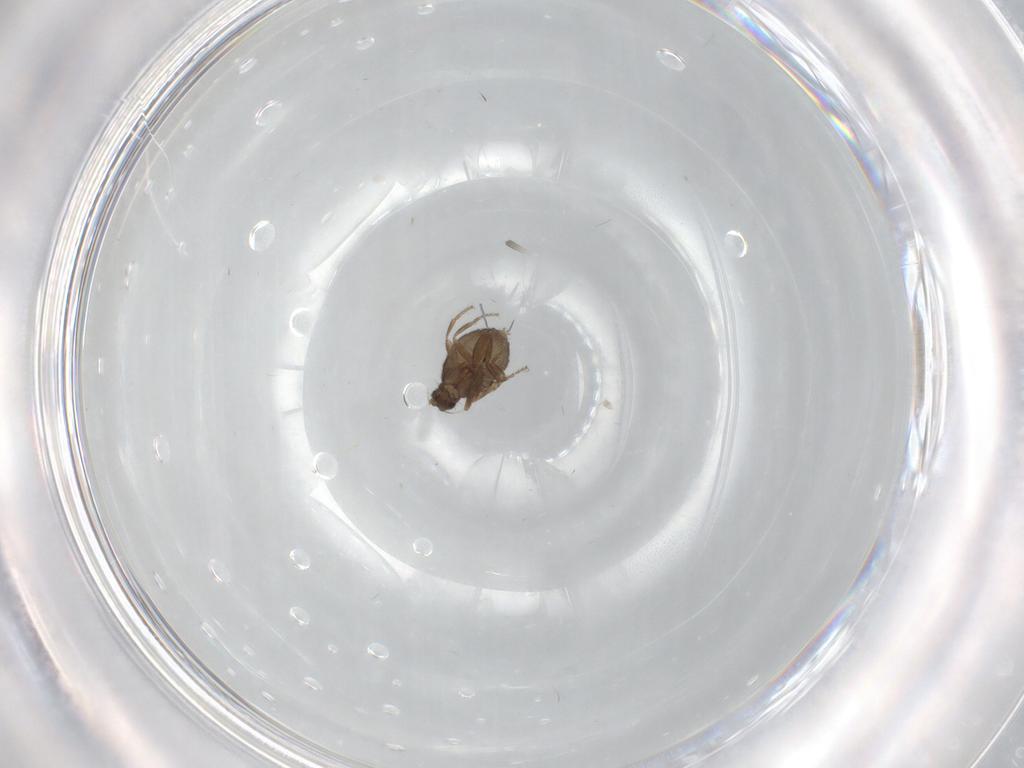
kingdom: Animalia
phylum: Arthropoda
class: Insecta
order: Diptera
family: Phoridae
